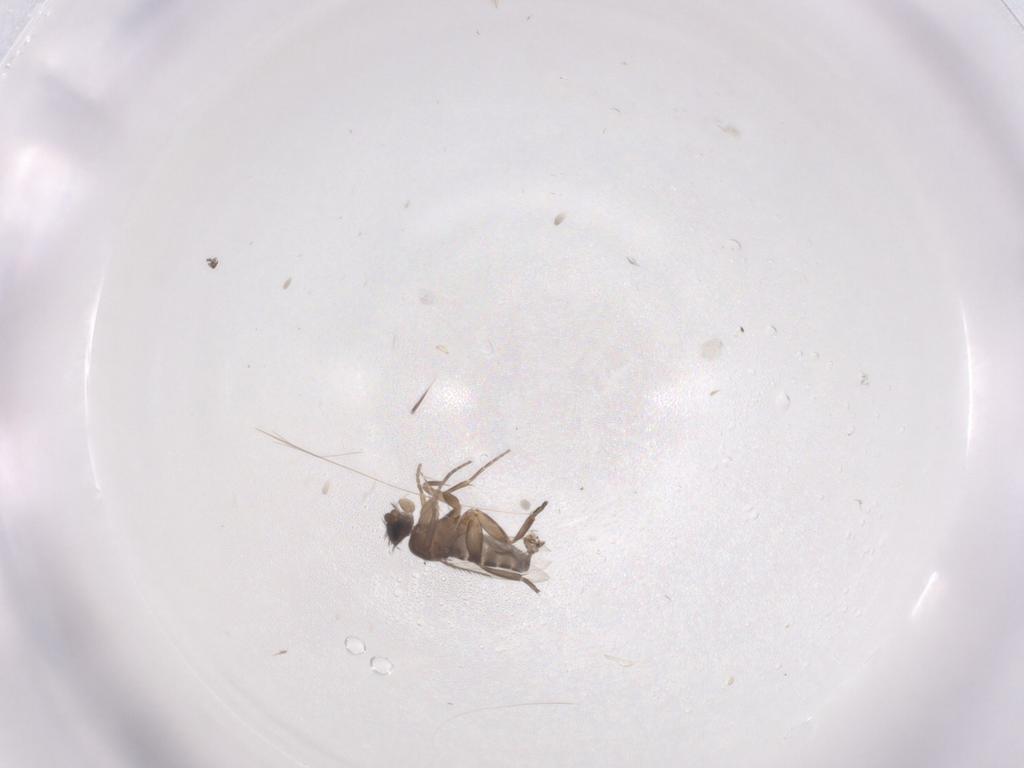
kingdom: Animalia
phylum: Arthropoda
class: Insecta
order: Diptera
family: Phoridae
